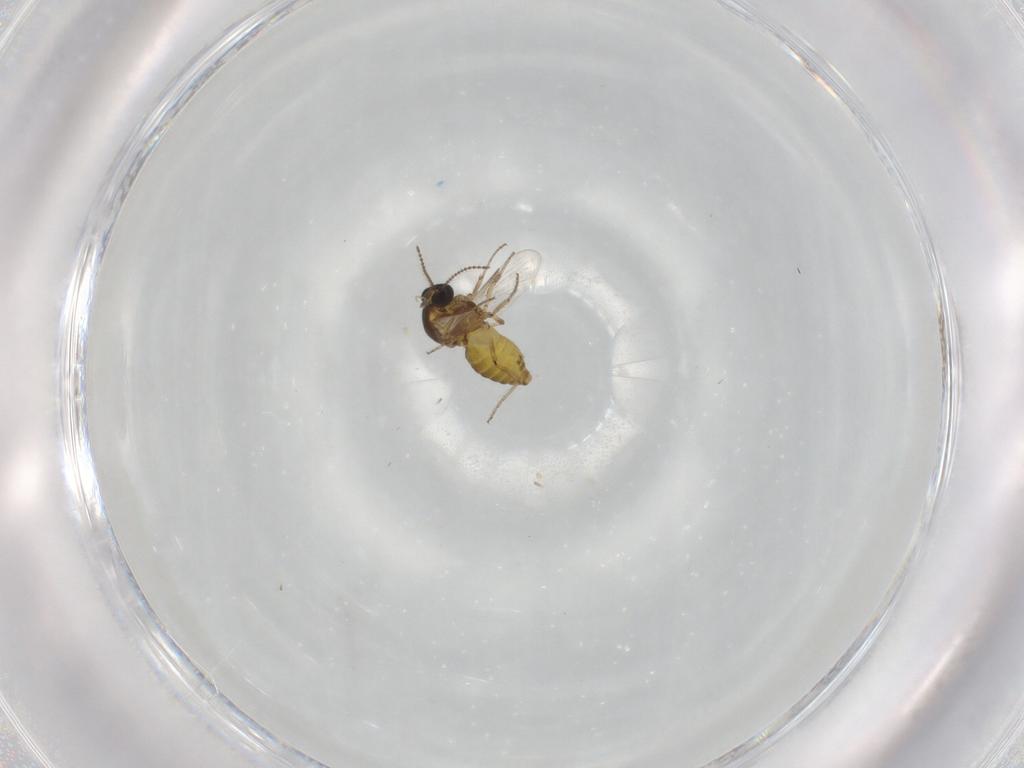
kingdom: Animalia
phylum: Arthropoda
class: Insecta
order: Diptera
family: Ceratopogonidae
